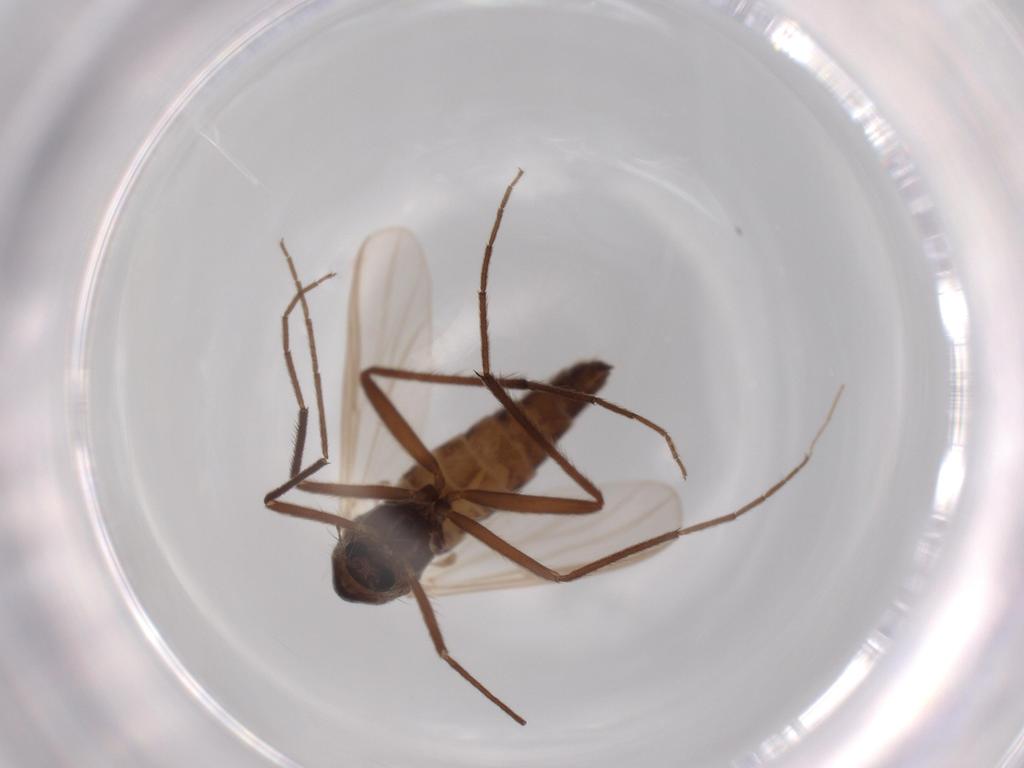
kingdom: Animalia
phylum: Arthropoda
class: Insecta
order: Diptera
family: Chironomidae
